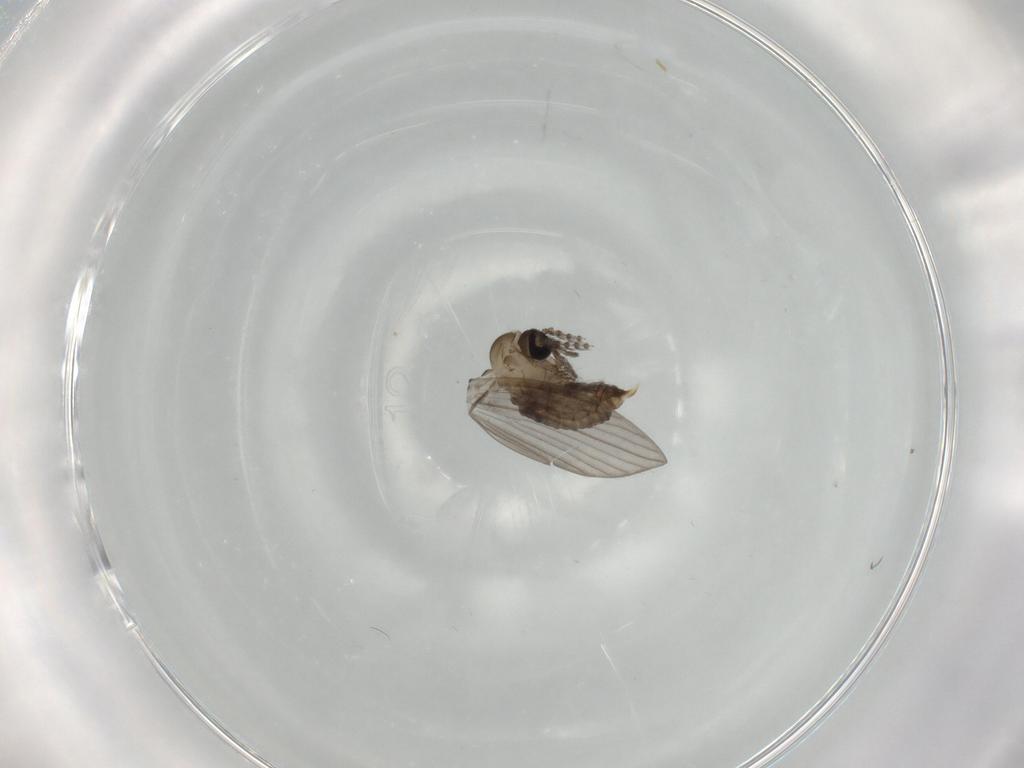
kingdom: Animalia
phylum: Arthropoda
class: Insecta
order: Diptera
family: Psychodidae
